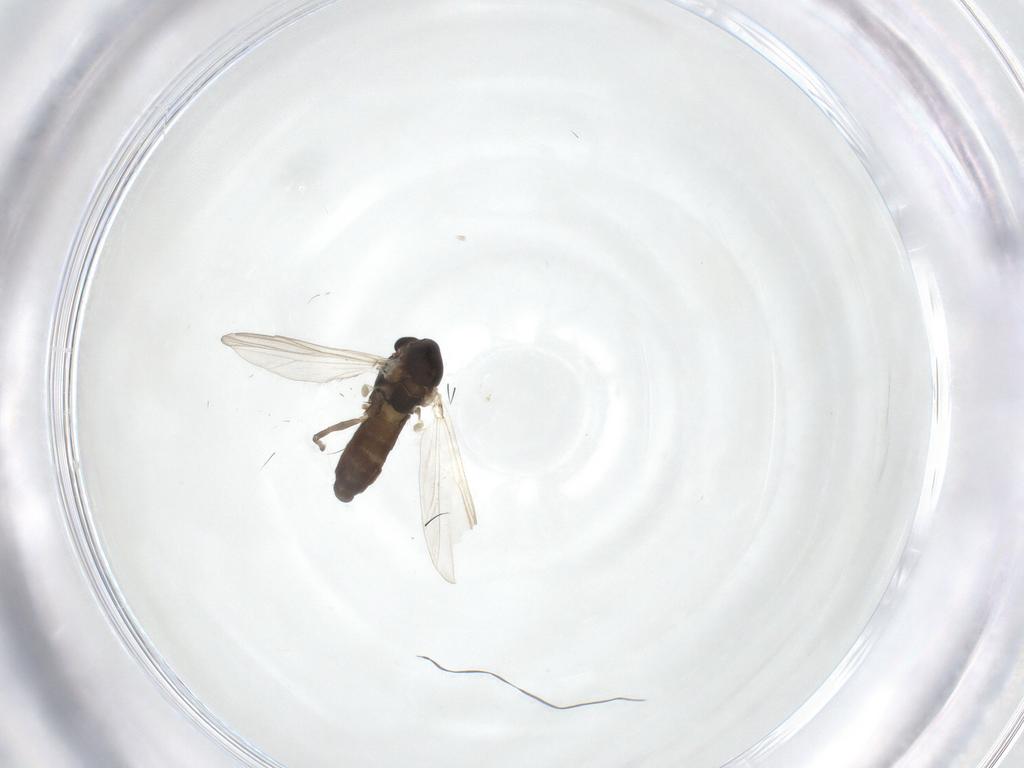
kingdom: Animalia
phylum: Arthropoda
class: Insecta
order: Diptera
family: Chironomidae
